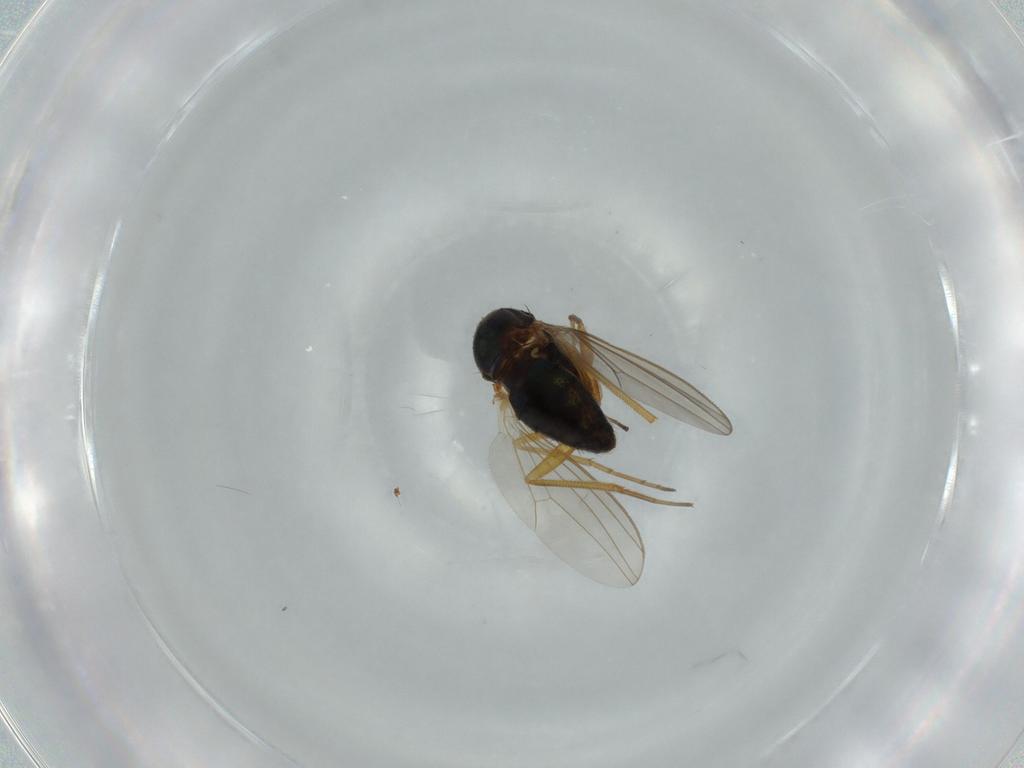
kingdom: Animalia
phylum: Arthropoda
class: Insecta
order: Diptera
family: Dolichopodidae
